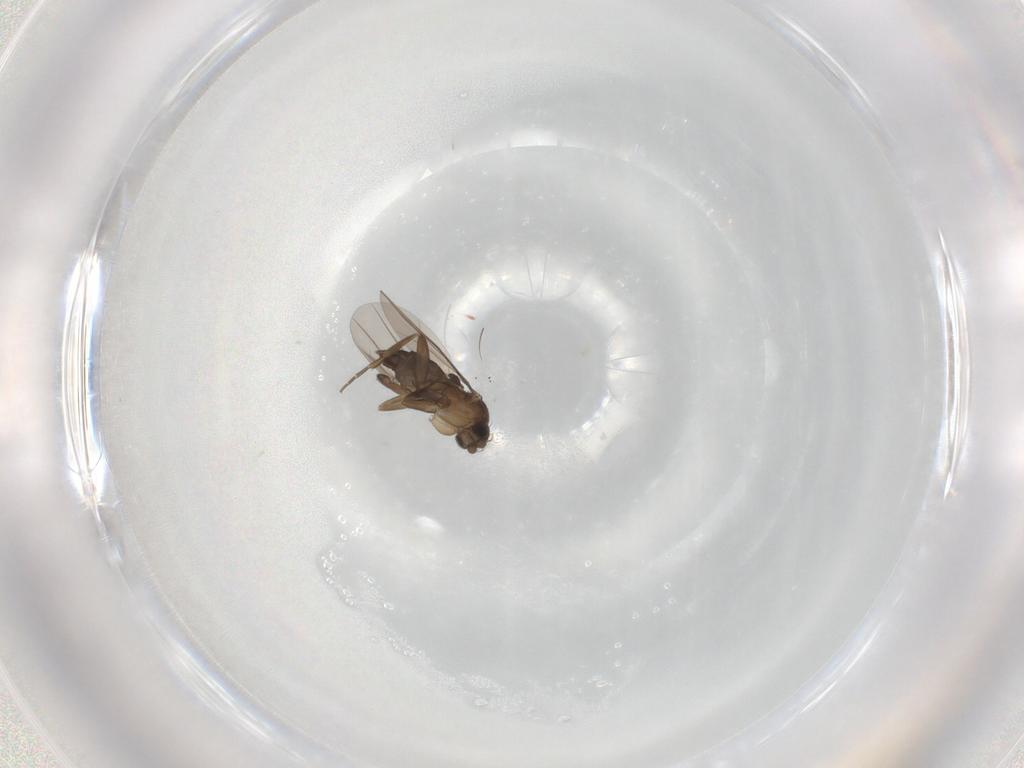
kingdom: Animalia
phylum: Arthropoda
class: Insecta
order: Diptera
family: Phoridae
